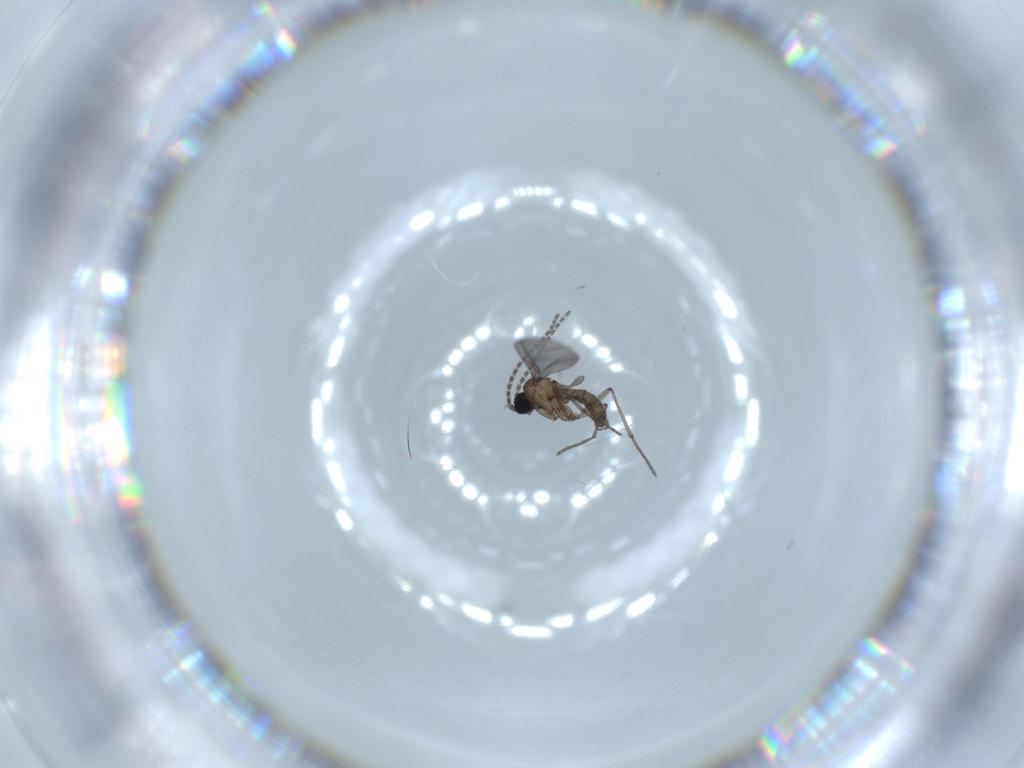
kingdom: Animalia
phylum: Arthropoda
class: Insecta
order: Diptera
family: Sciaridae
